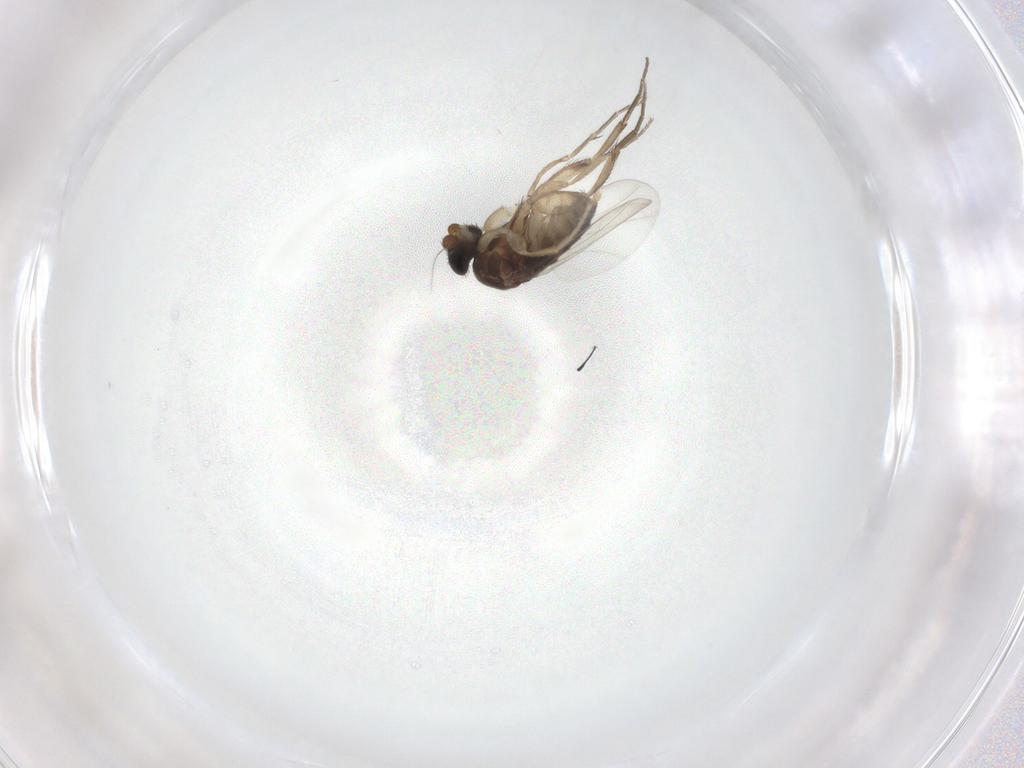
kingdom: Animalia
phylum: Arthropoda
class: Insecta
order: Diptera
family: Phoridae
